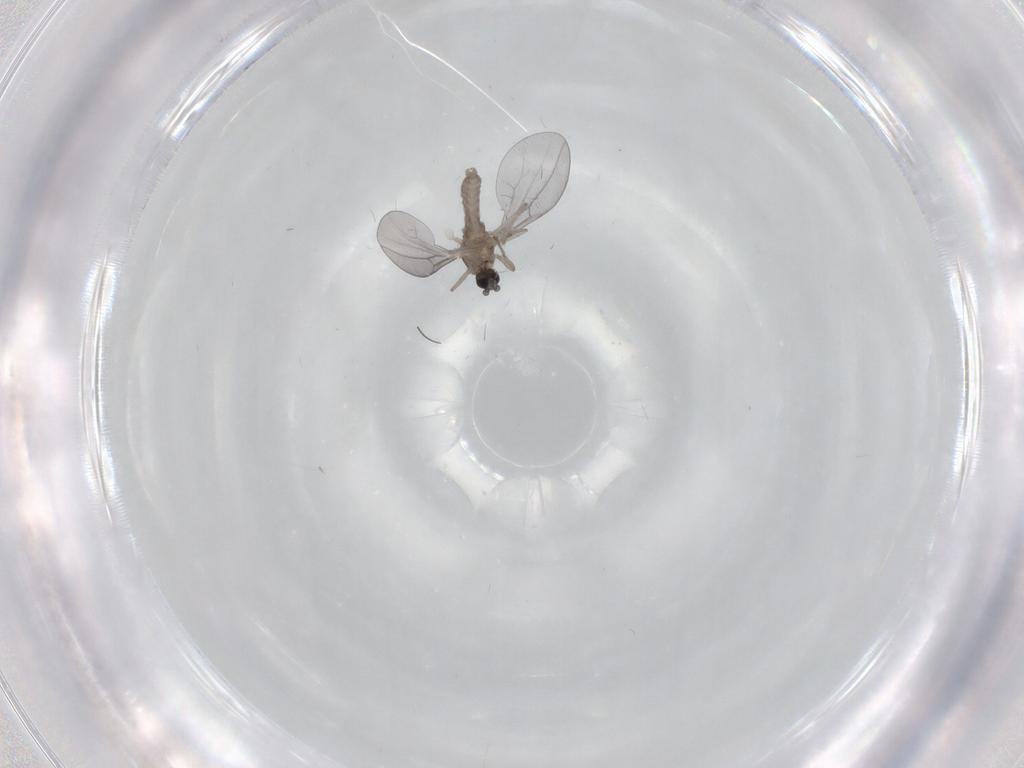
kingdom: Animalia
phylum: Arthropoda
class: Insecta
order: Diptera
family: Cecidomyiidae
